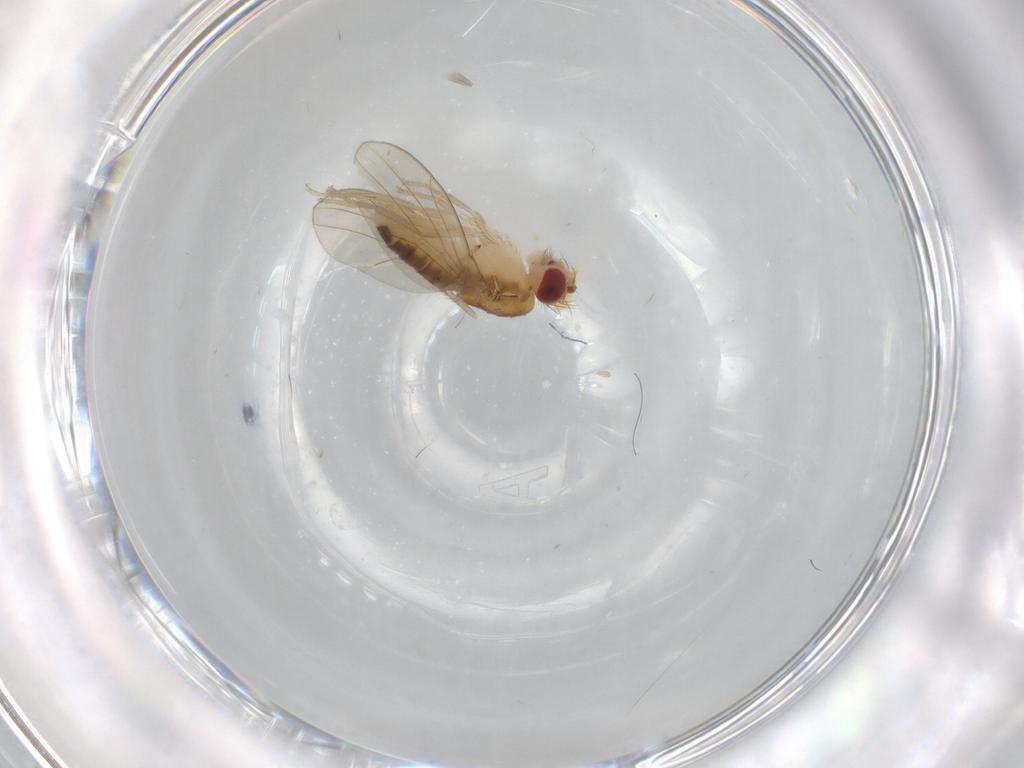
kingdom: Animalia
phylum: Arthropoda
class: Insecta
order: Diptera
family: Drosophilidae
